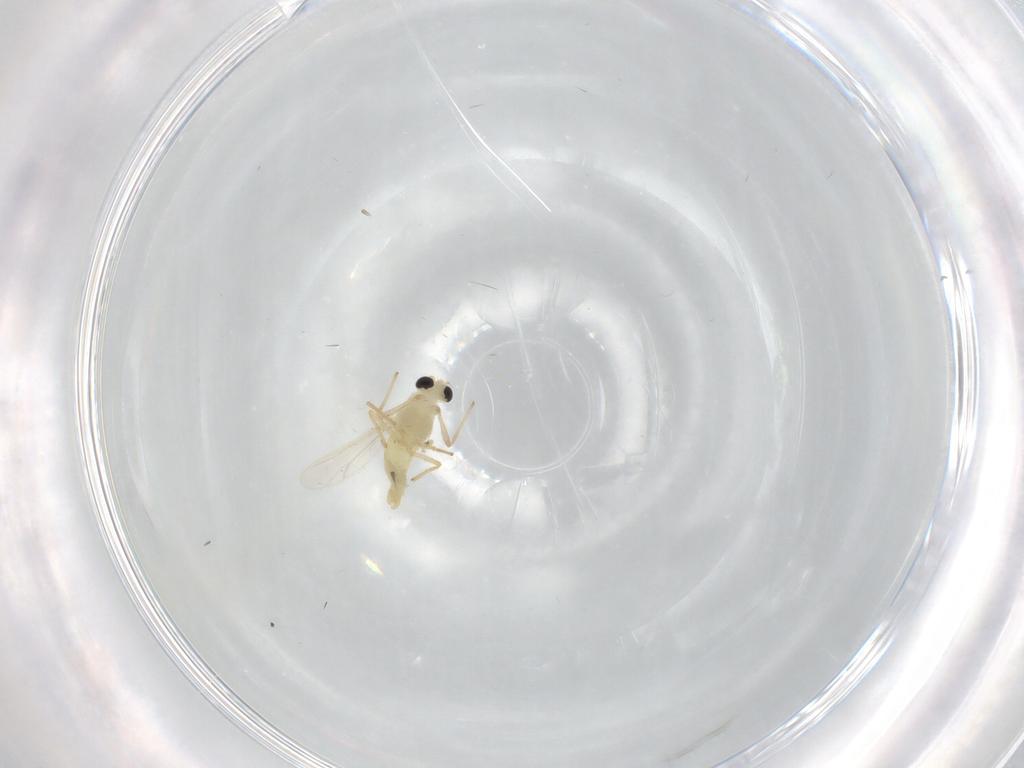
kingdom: Animalia
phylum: Arthropoda
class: Insecta
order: Diptera
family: Chironomidae
